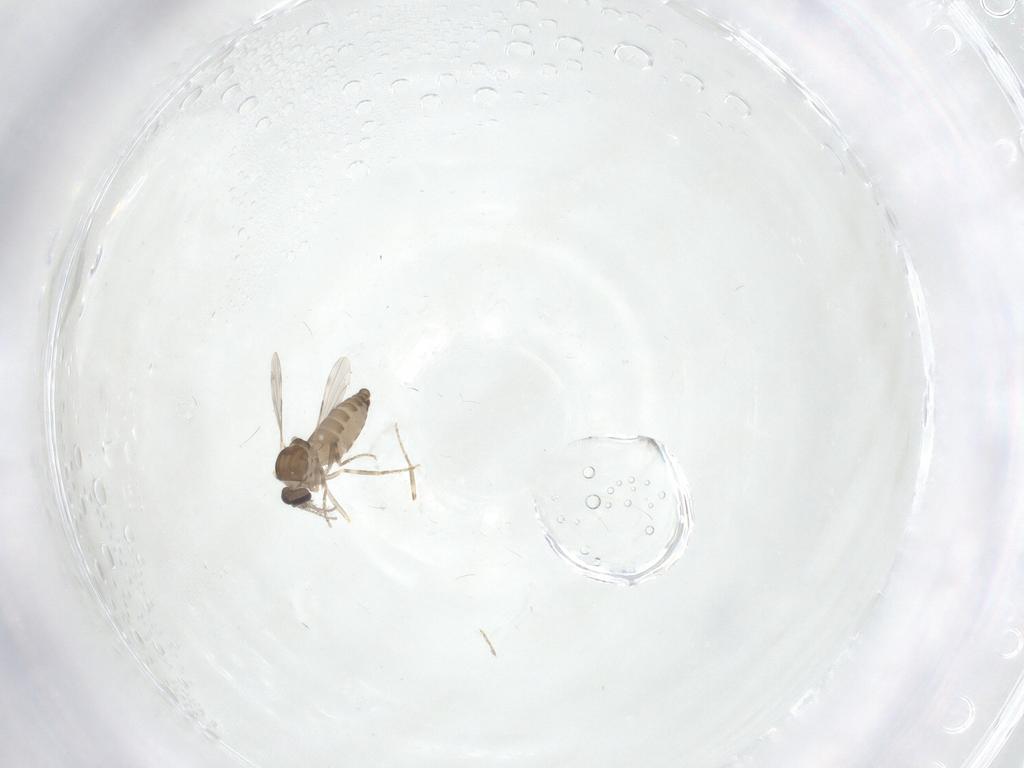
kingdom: Animalia
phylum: Arthropoda
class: Insecta
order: Diptera
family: Ceratopogonidae
